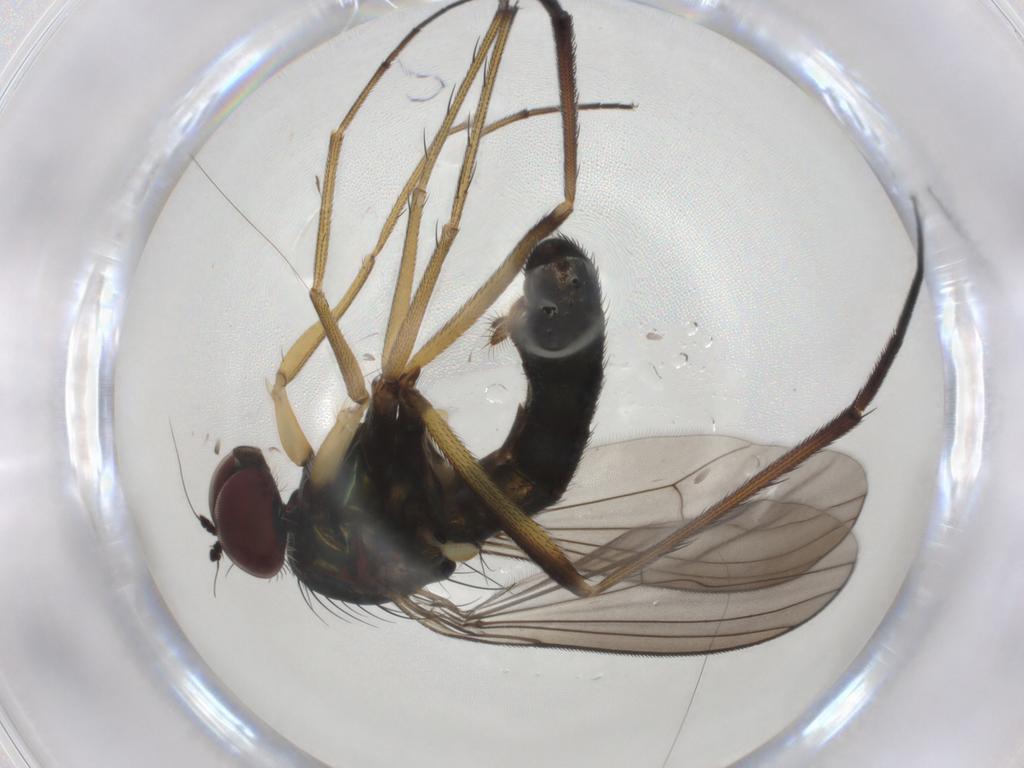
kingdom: Animalia
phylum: Arthropoda
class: Insecta
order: Diptera
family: Dolichopodidae
